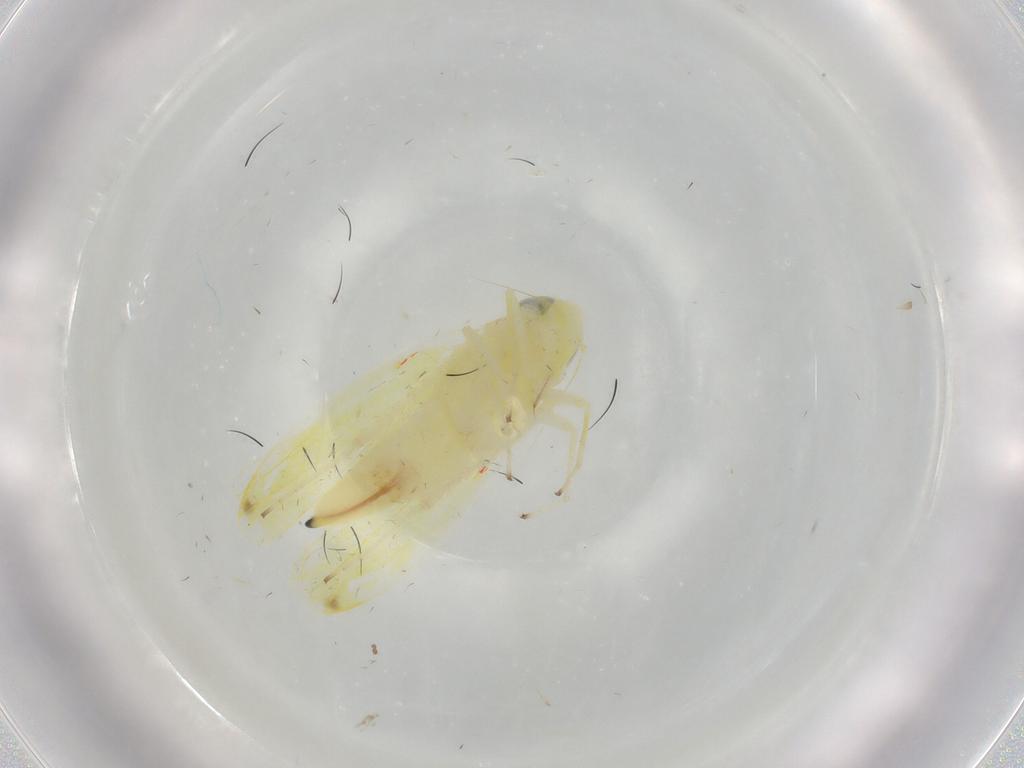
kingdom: Animalia
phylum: Arthropoda
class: Insecta
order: Hemiptera
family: Cicadellidae
